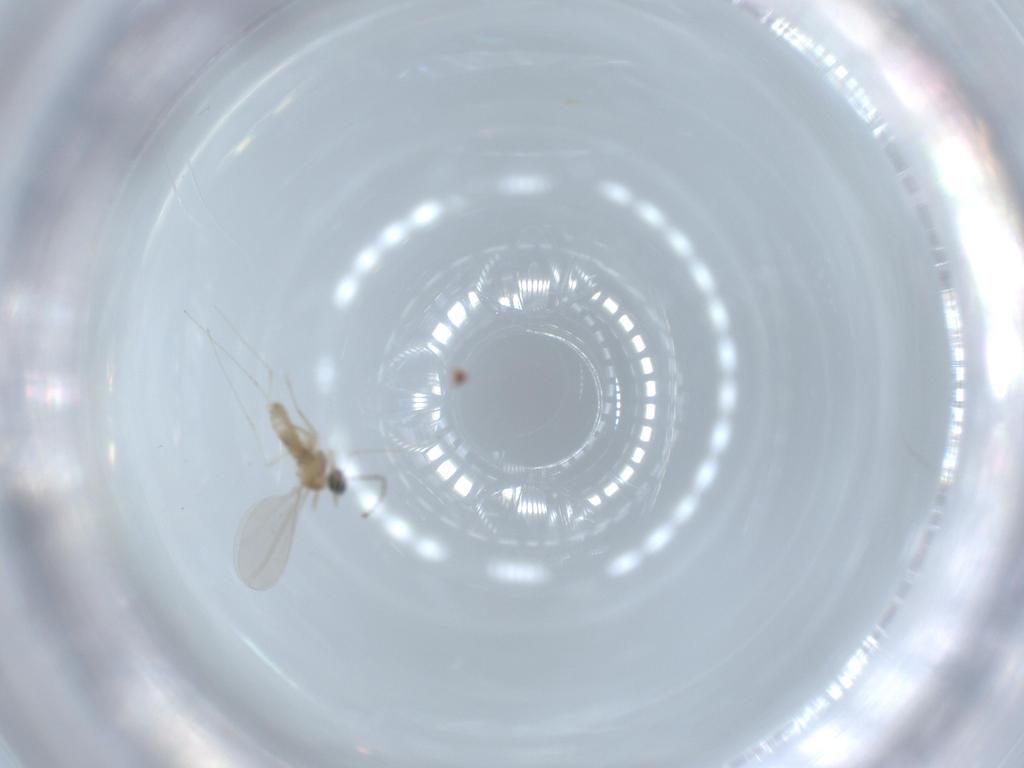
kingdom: Animalia
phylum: Arthropoda
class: Insecta
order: Diptera
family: Cecidomyiidae
